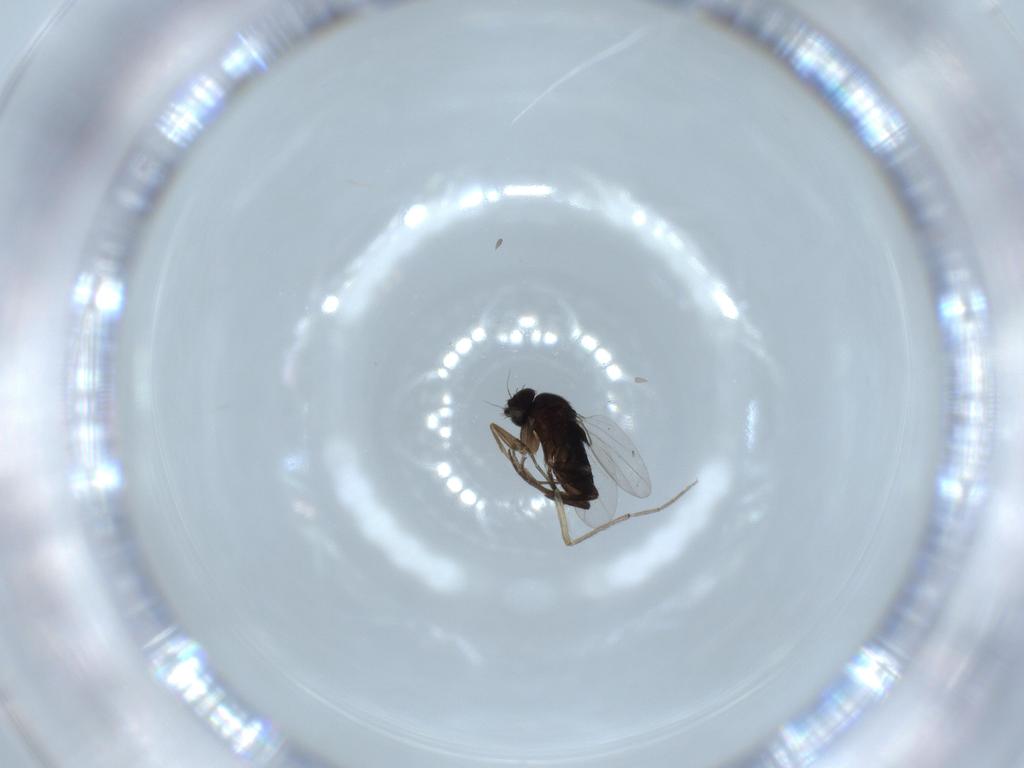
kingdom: Animalia
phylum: Arthropoda
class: Insecta
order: Diptera
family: Phoridae
